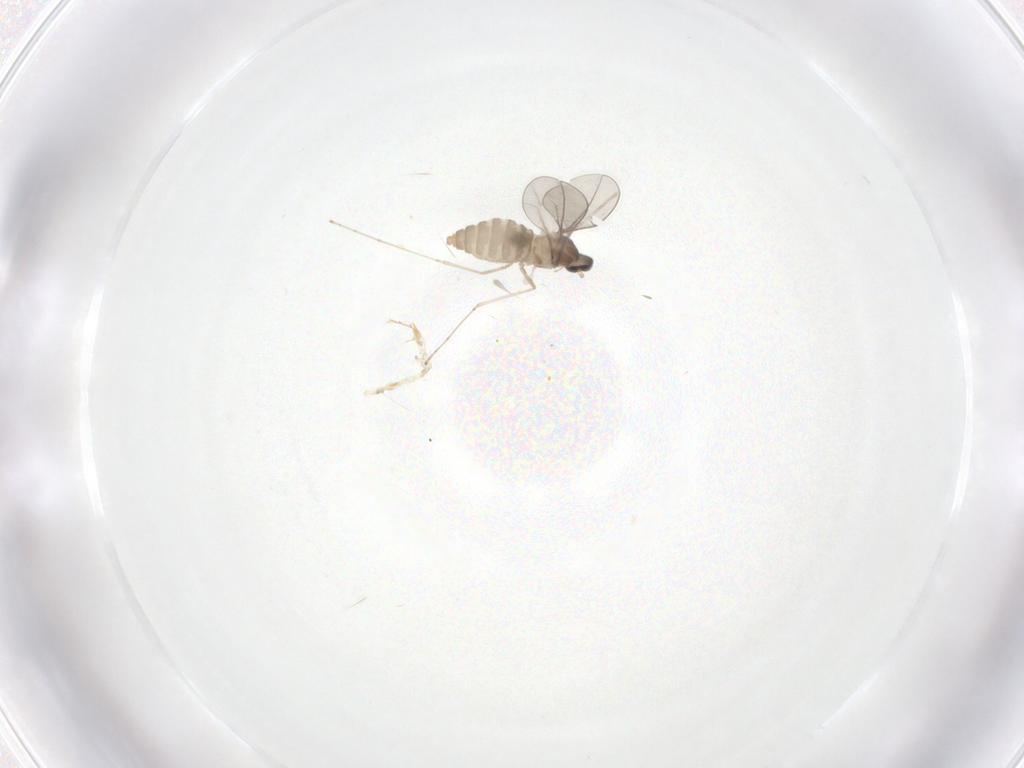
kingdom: Animalia
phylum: Arthropoda
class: Insecta
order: Diptera
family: Cecidomyiidae
